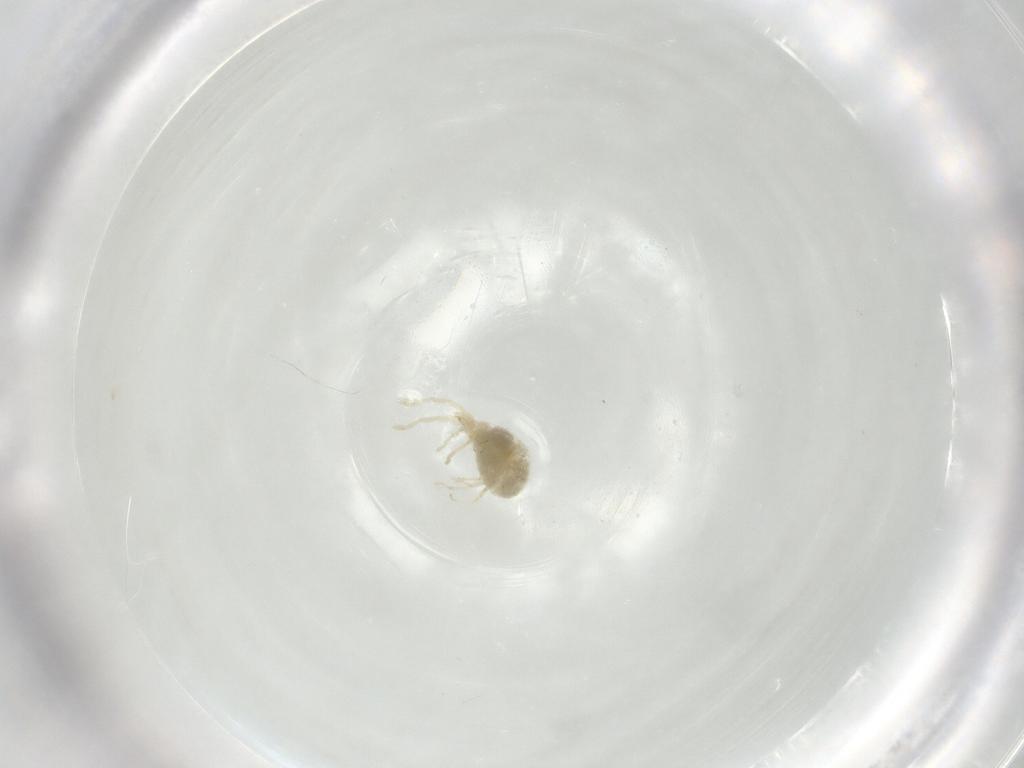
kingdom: Animalia
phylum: Arthropoda
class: Arachnida
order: Trombidiformes
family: Erythraeidae
